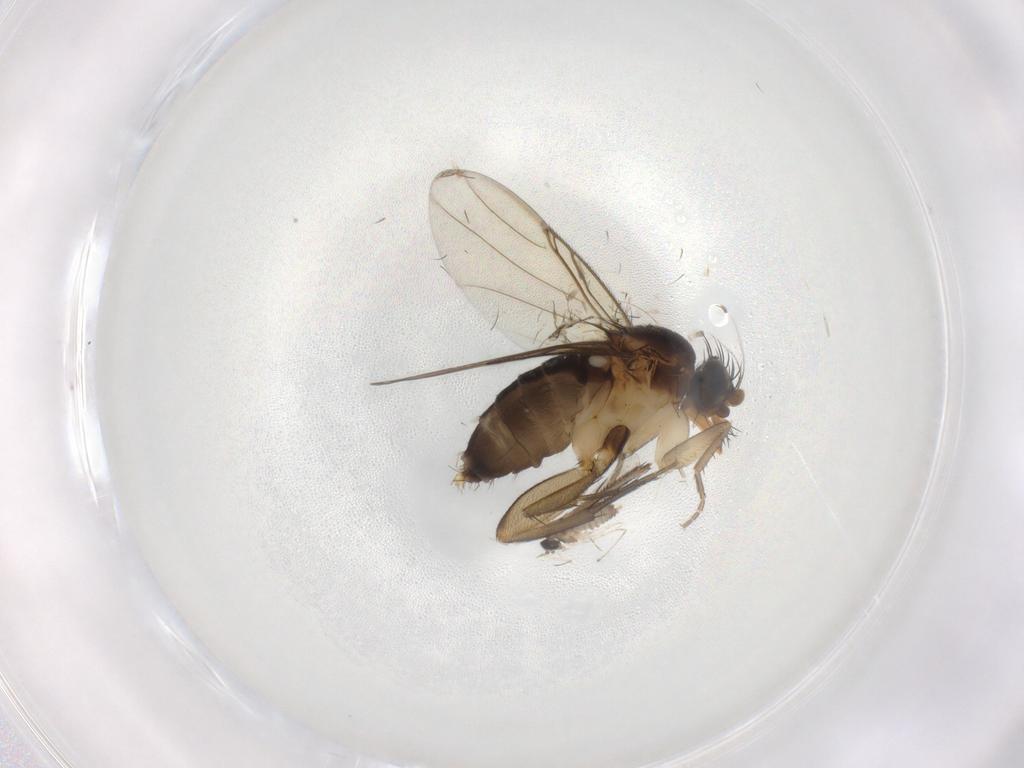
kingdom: Animalia
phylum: Arthropoda
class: Insecta
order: Diptera
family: Cecidomyiidae
